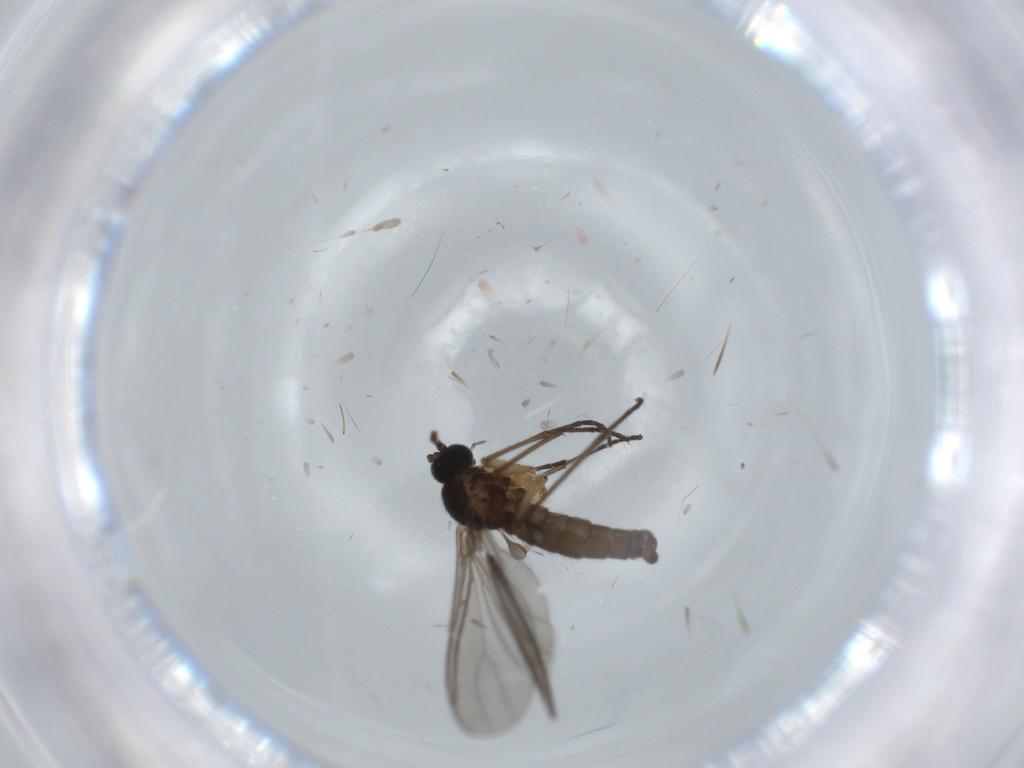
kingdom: Animalia
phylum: Arthropoda
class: Insecta
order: Diptera
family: Sciaridae
